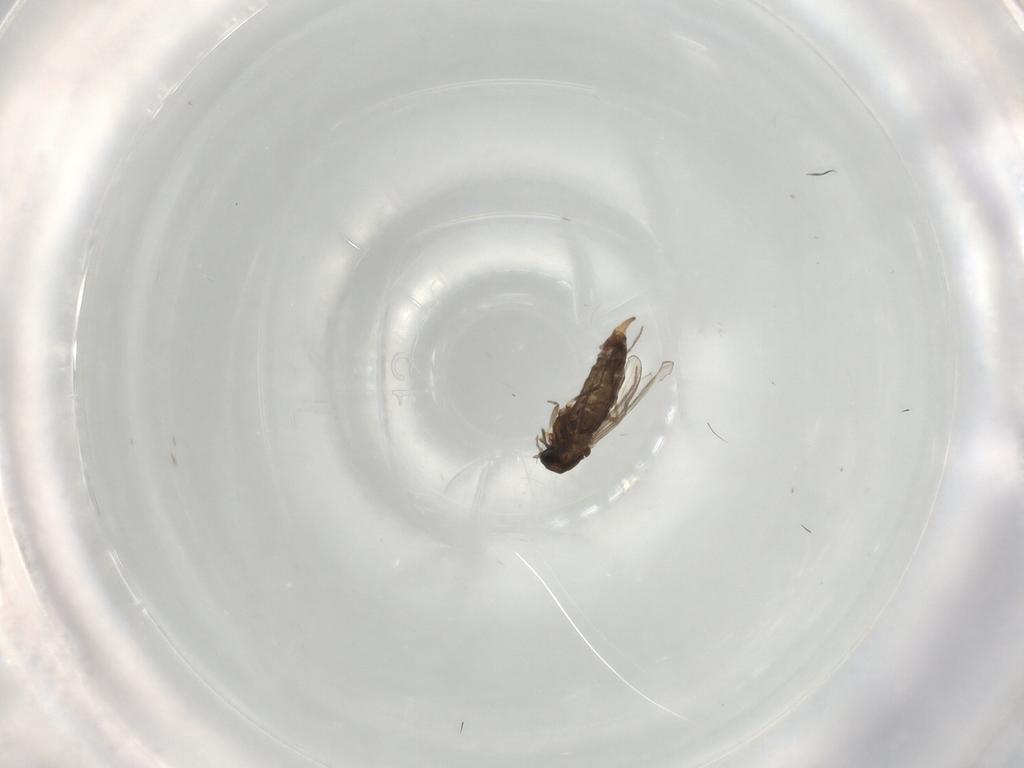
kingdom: Animalia
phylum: Arthropoda
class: Insecta
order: Diptera
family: Chironomidae
